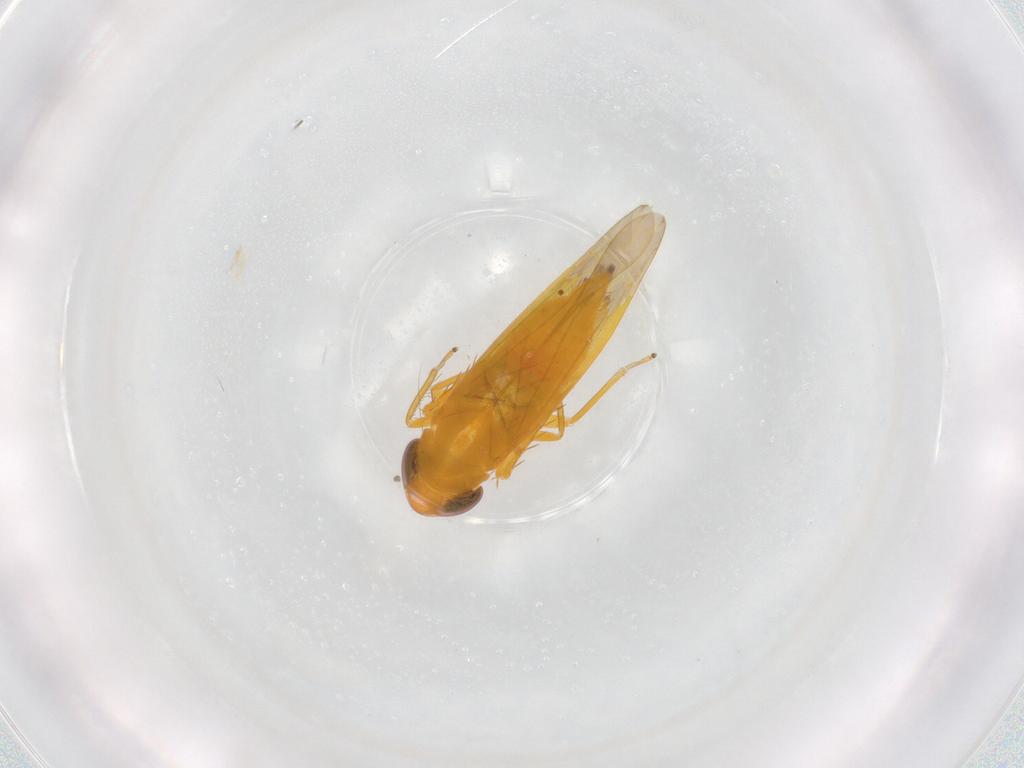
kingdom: Animalia
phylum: Arthropoda
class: Insecta
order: Hemiptera
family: Cicadellidae
